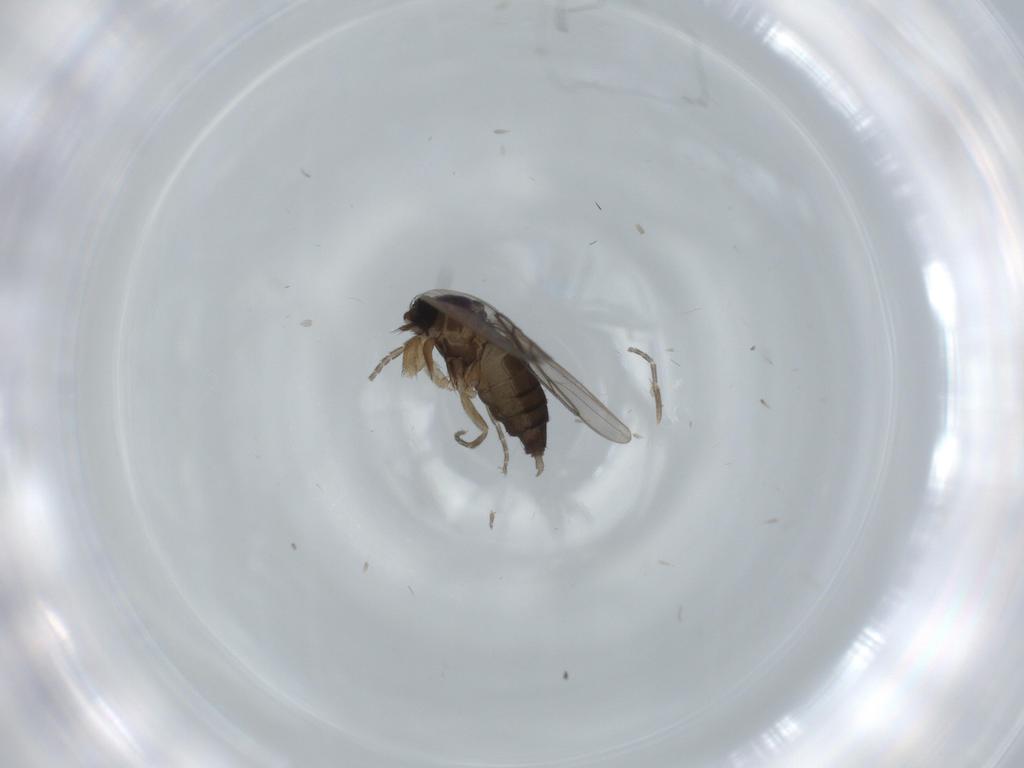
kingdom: Animalia
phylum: Arthropoda
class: Insecta
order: Diptera
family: Phoridae
